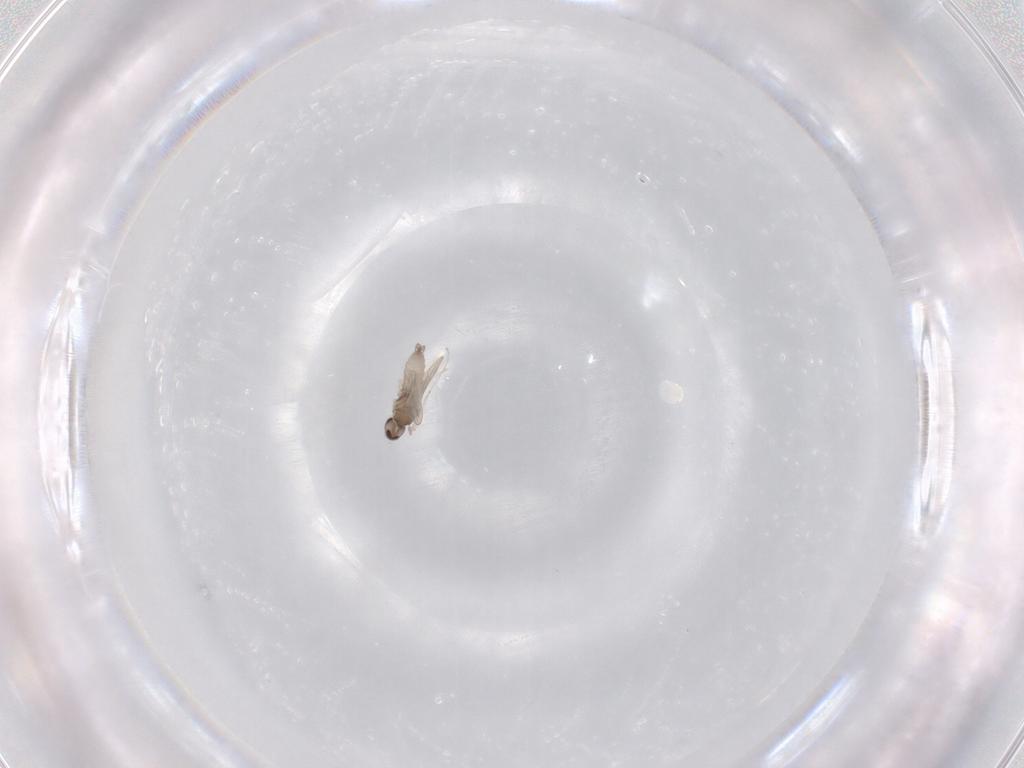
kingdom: Animalia
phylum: Arthropoda
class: Insecta
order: Diptera
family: Cecidomyiidae
